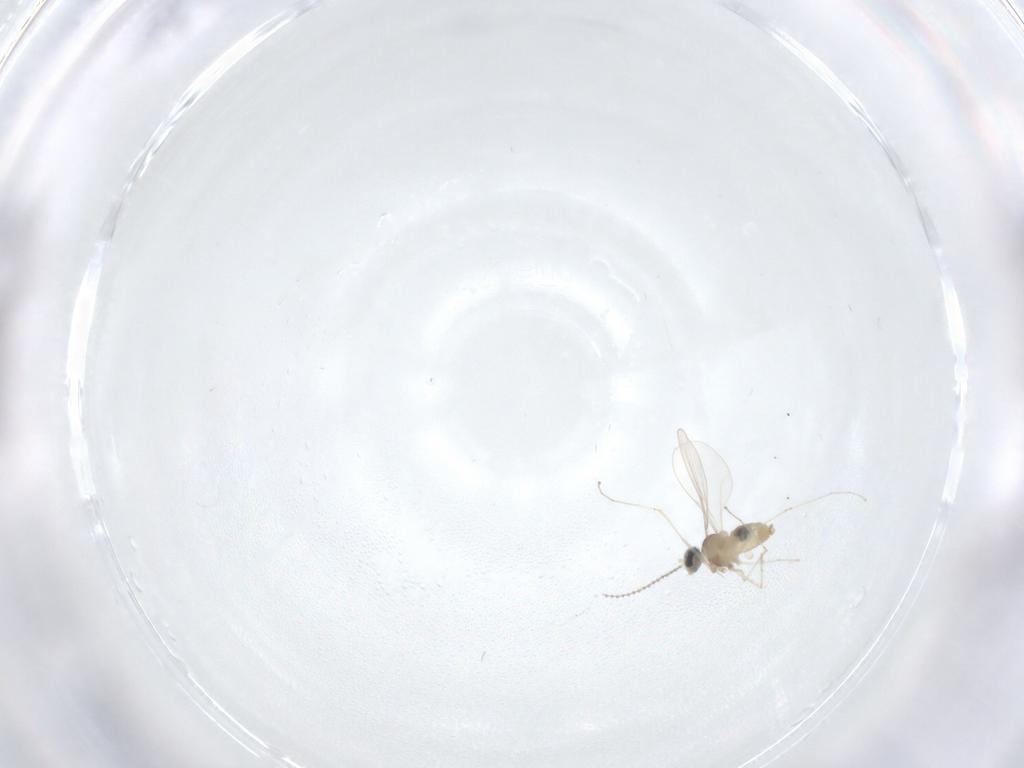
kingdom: Animalia
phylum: Arthropoda
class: Insecta
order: Diptera
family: Cecidomyiidae
